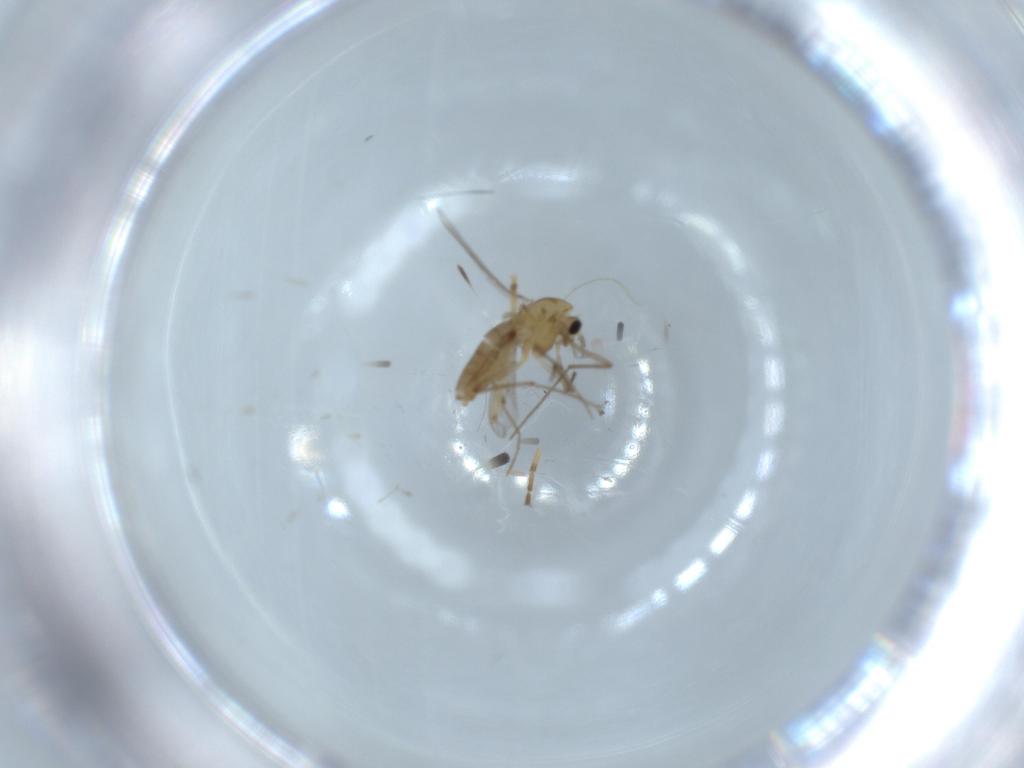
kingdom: Animalia
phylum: Arthropoda
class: Insecta
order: Diptera
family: Chironomidae
